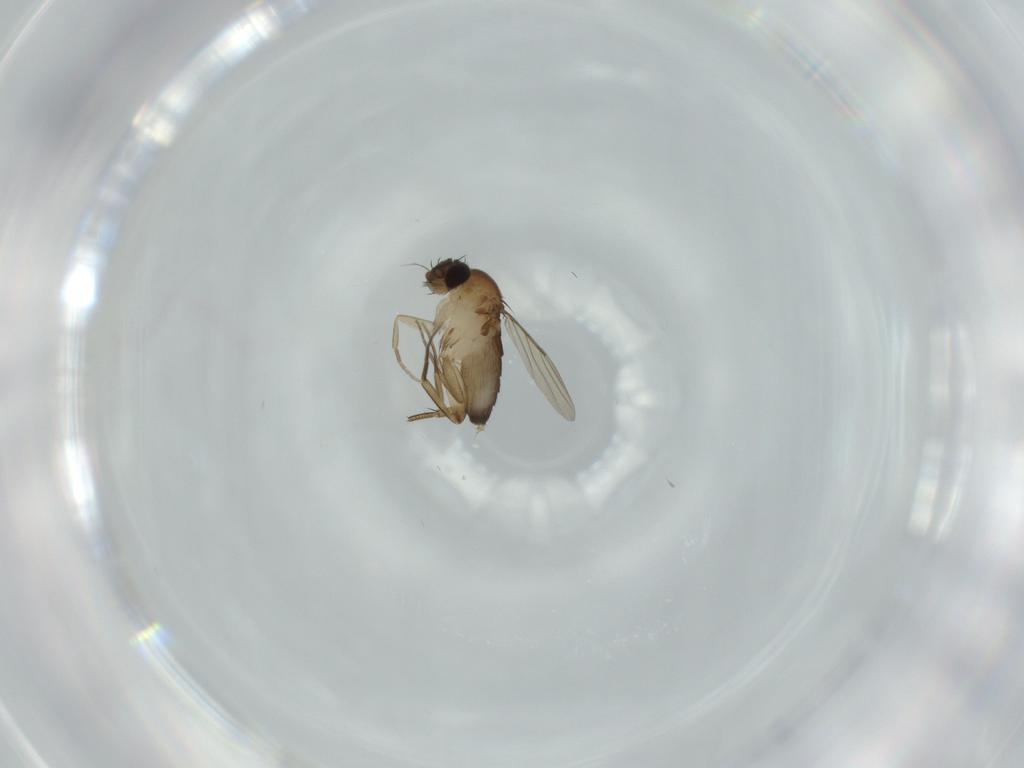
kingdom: Animalia
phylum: Arthropoda
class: Insecta
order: Diptera
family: Phoridae
